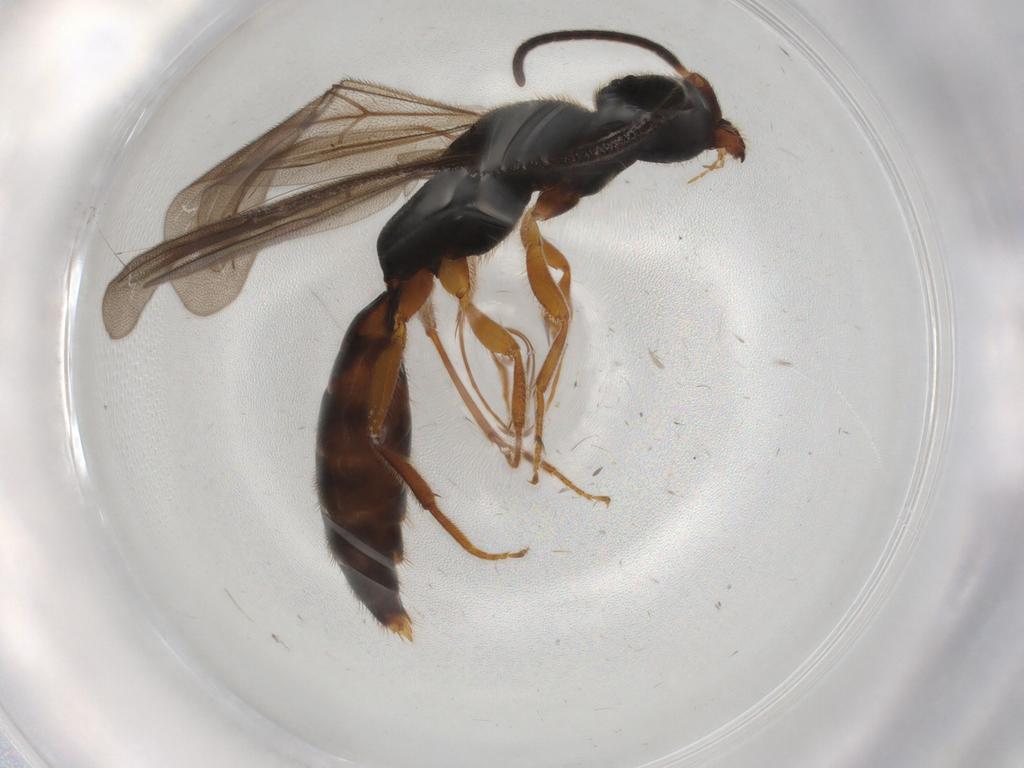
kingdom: Animalia
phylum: Arthropoda
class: Insecta
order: Hymenoptera
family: Bethylidae
